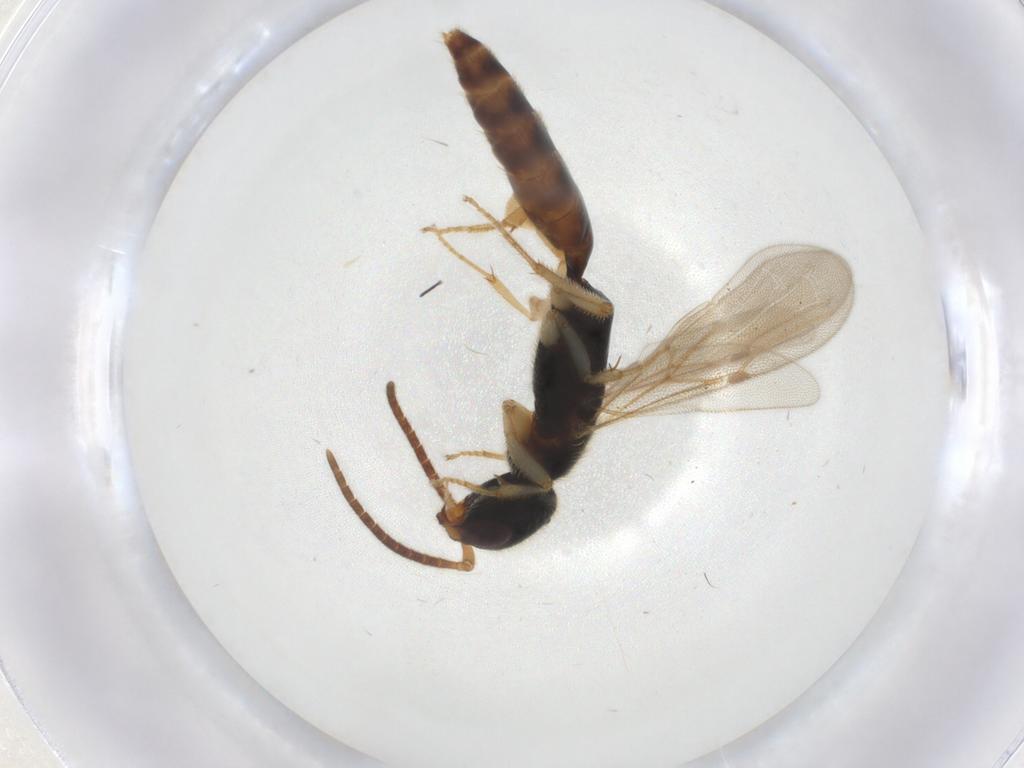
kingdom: Animalia
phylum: Arthropoda
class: Insecta
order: Hymenoptera
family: Bethylidae
